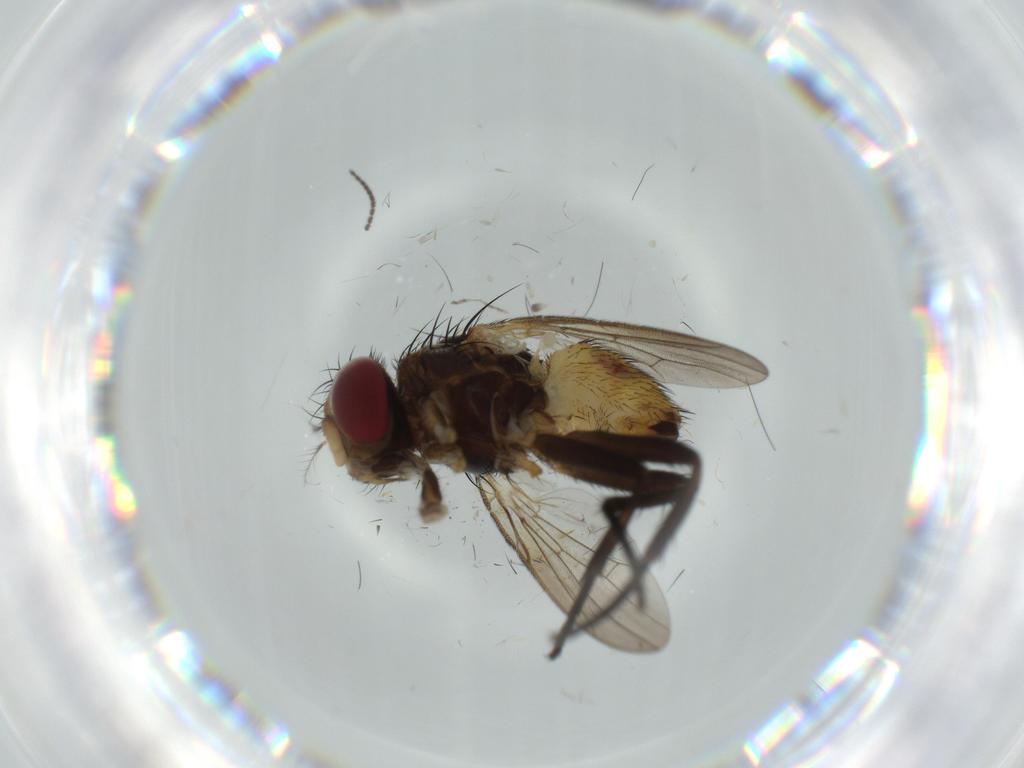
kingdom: Animalia
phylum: Arthropoda
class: Insecta
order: Diptera
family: Anthomyiidae
